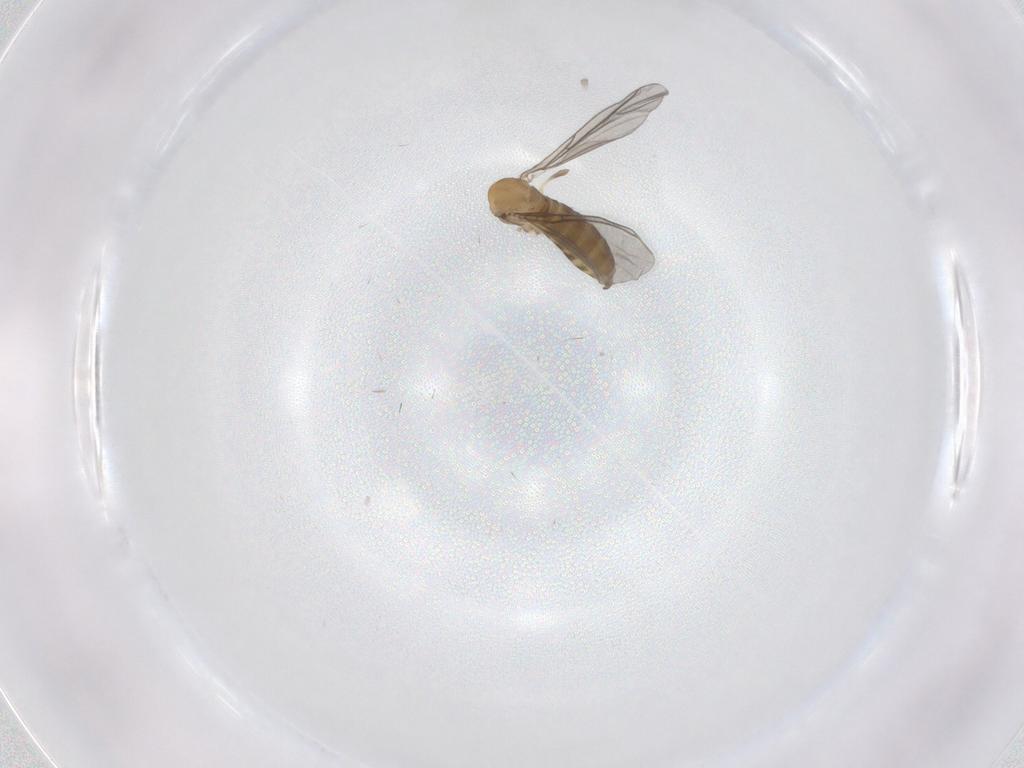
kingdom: Animalia
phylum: Arthropoda
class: Insecta
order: Diptera
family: Sciaridae
